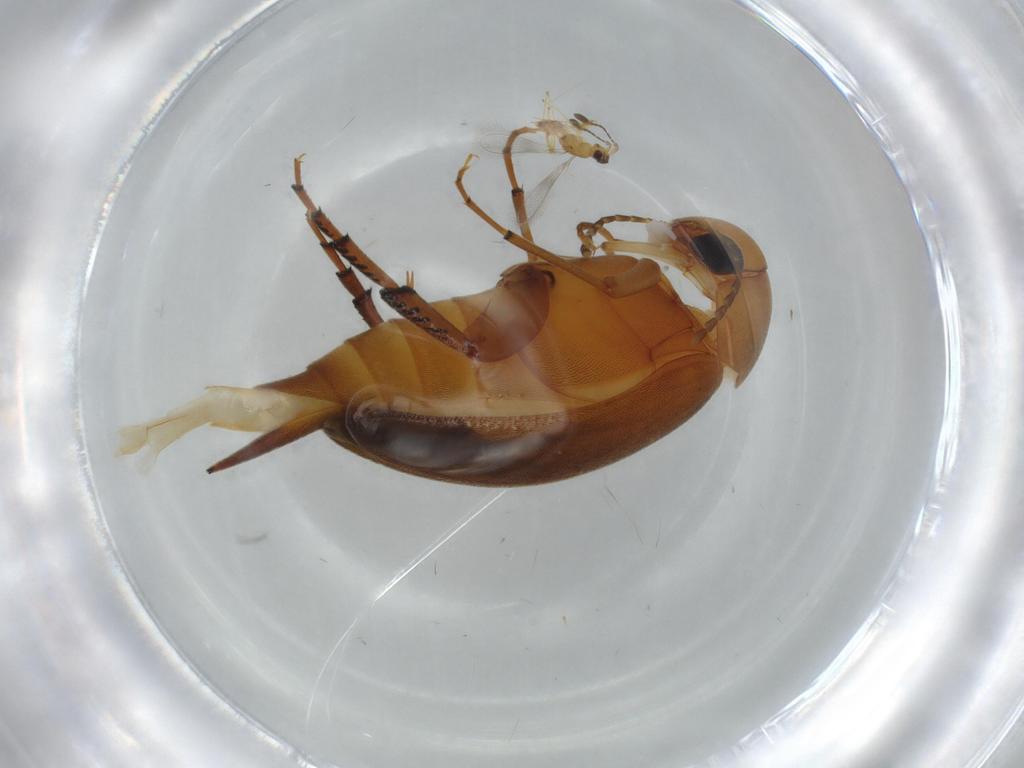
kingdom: Animalia
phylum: Arthropoda
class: Insecta
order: Coleoptera
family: Mordellidae
